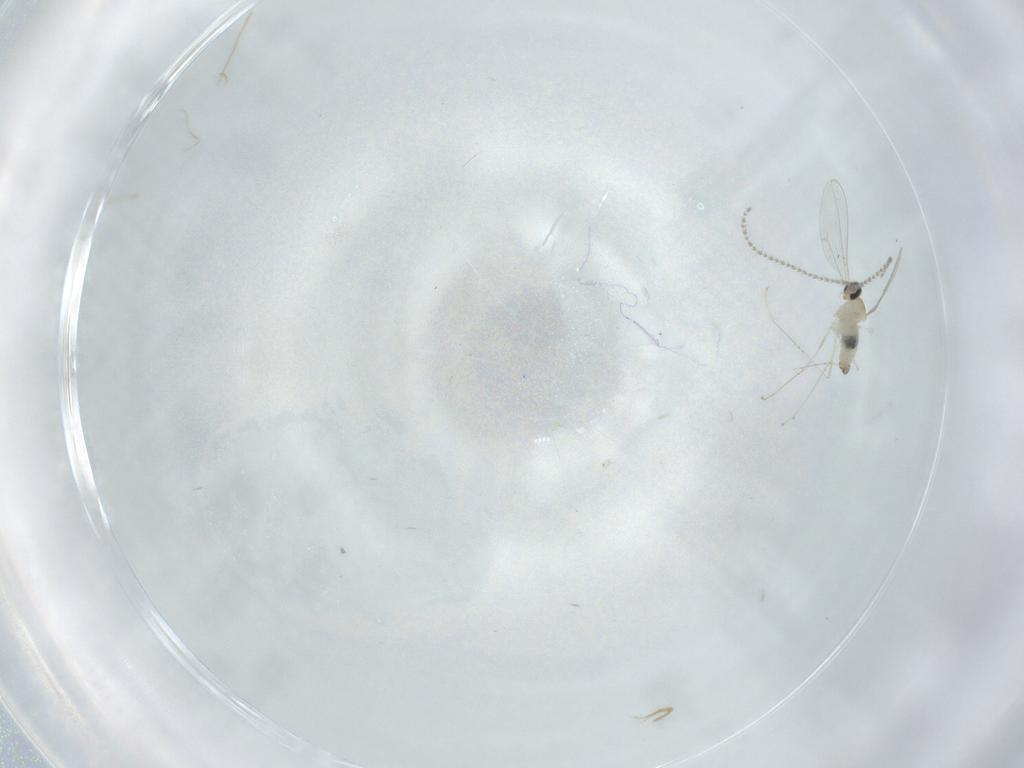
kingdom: Animalia
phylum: Arthropoda
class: Insecta
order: Diptera
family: Cecidomyiidae
